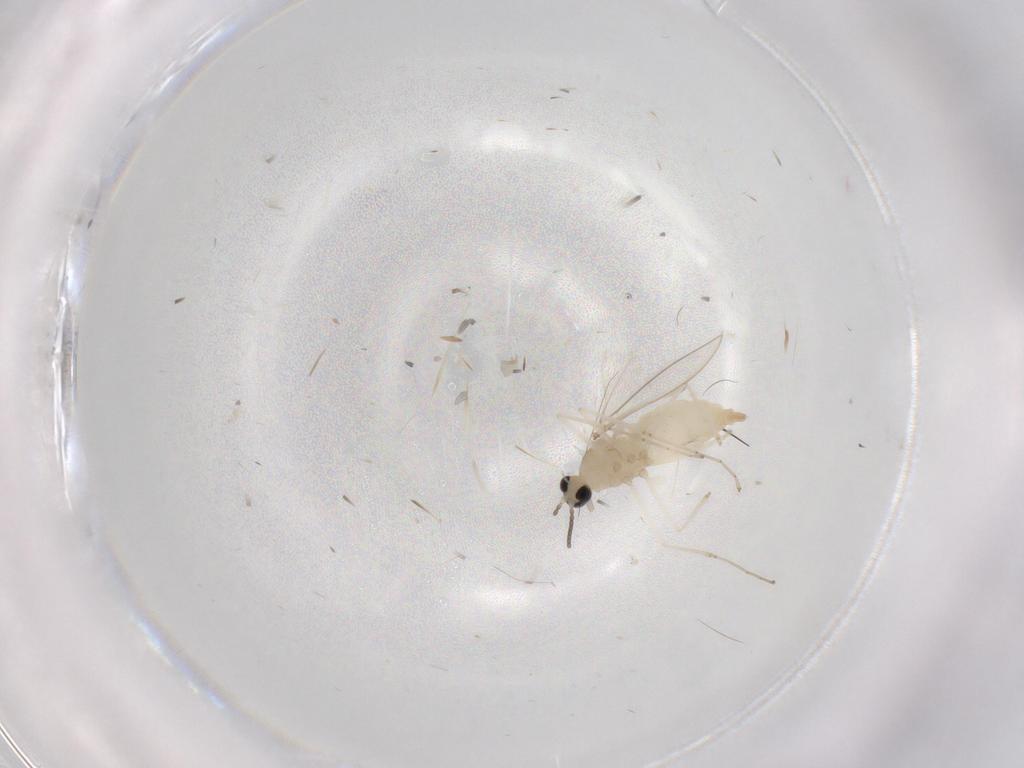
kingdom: Animalia
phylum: Arthropoda
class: Insecta
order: Diptera
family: Cecidomyiidae
